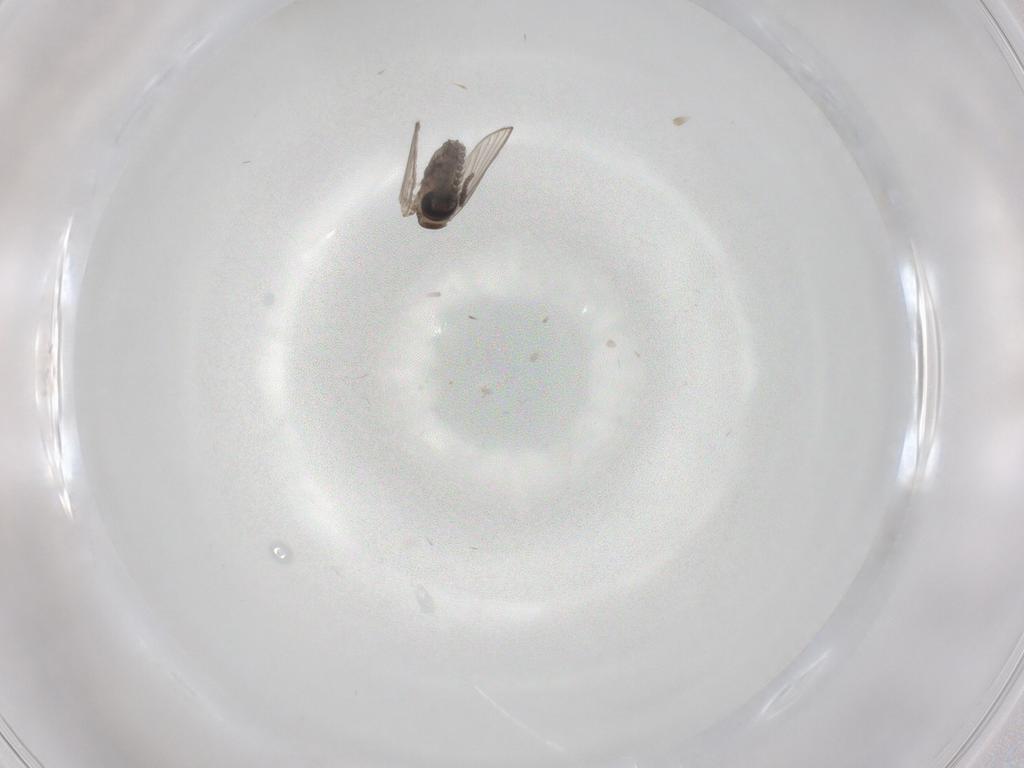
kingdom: Animalia
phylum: Arthropoda
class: Insecta
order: Diptera
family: Psychodidae
